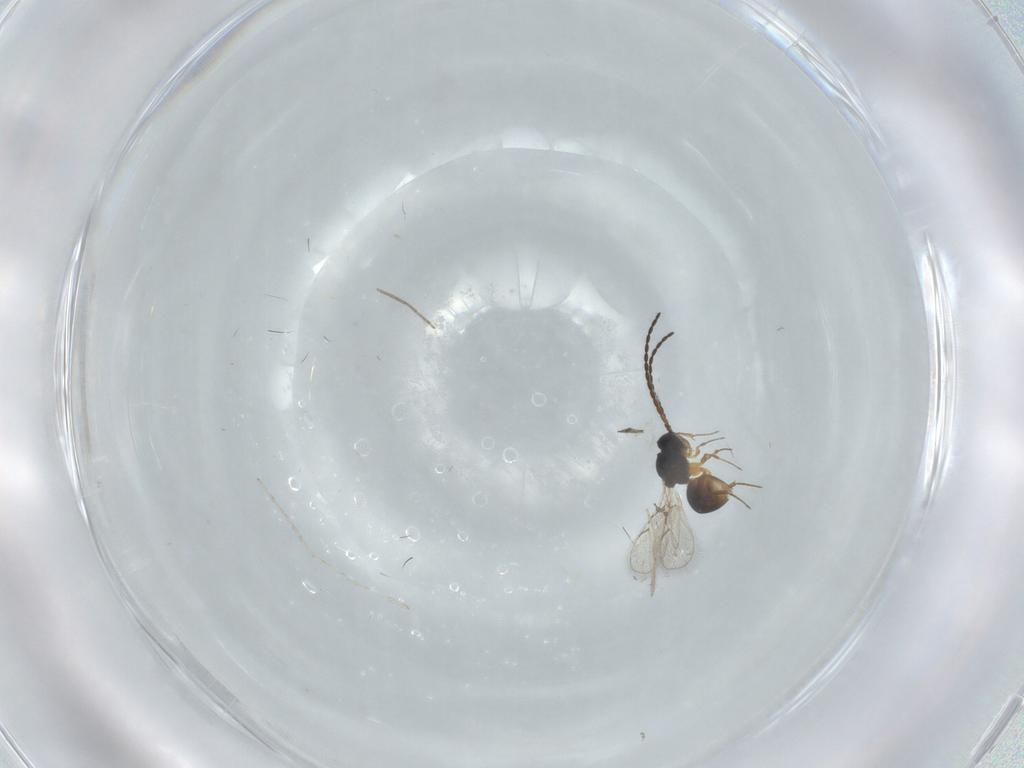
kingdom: Animalia
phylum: Arthropoda
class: Insecta
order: Hymenoptera
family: Figitidae
